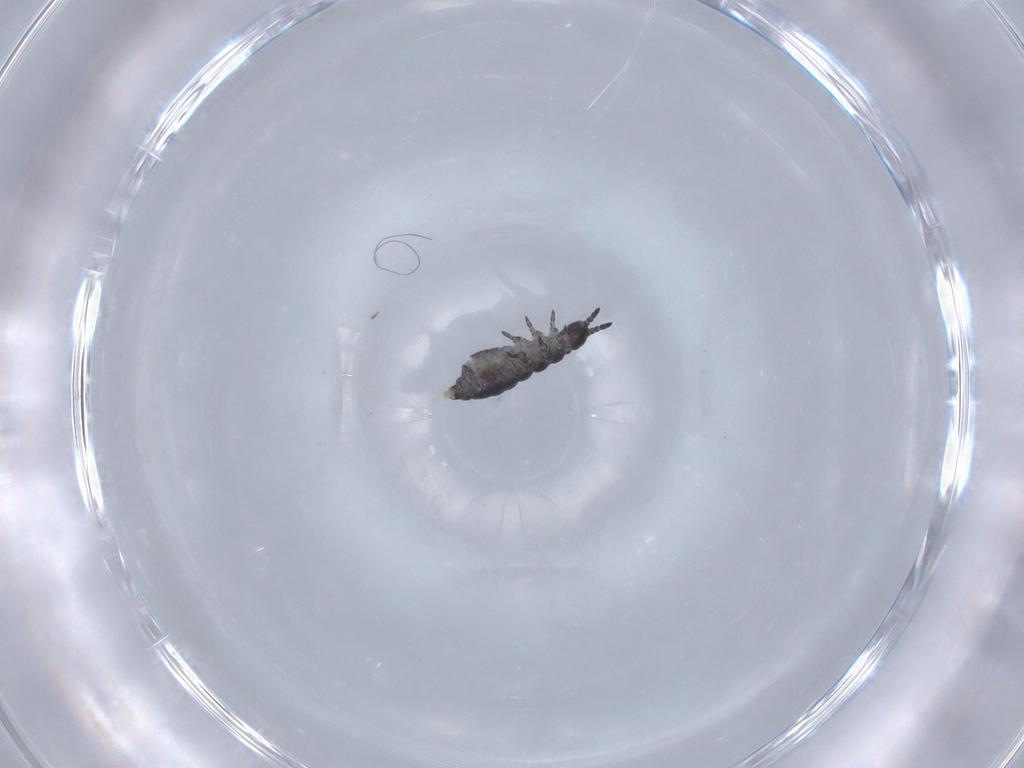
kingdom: Animalia
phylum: Arthropoda
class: Collembola
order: Poduromorpha
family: Hypogastruridae
